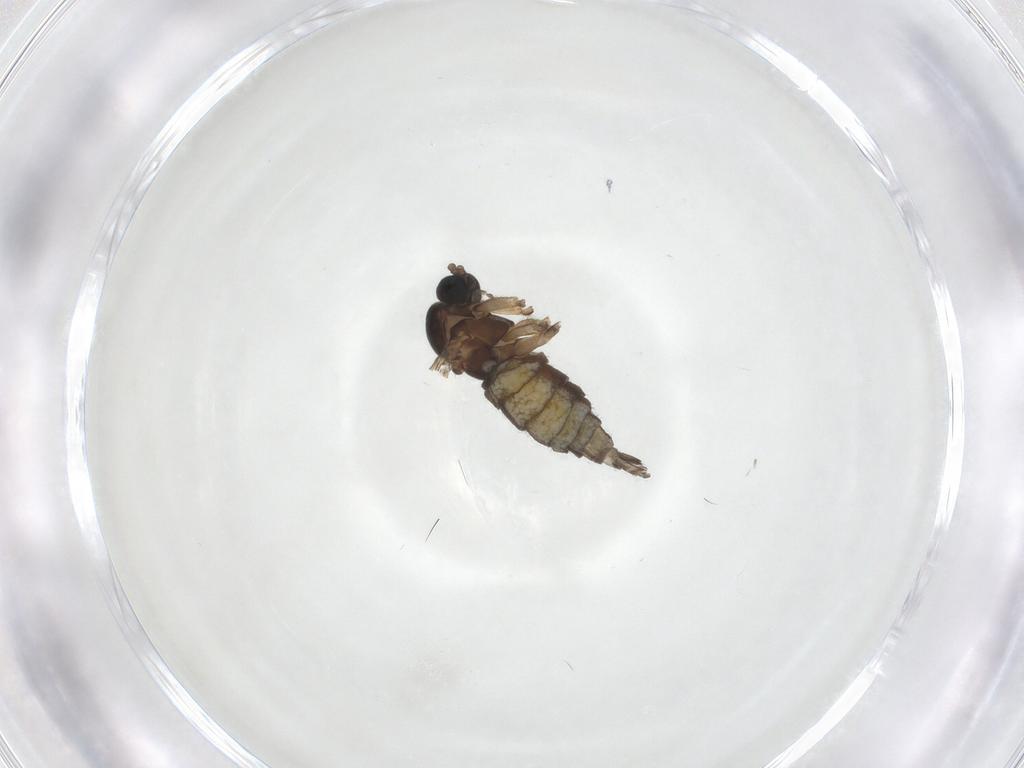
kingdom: Animalia
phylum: Arthropoda
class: Insecta
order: Diptera
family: Sciaridae
